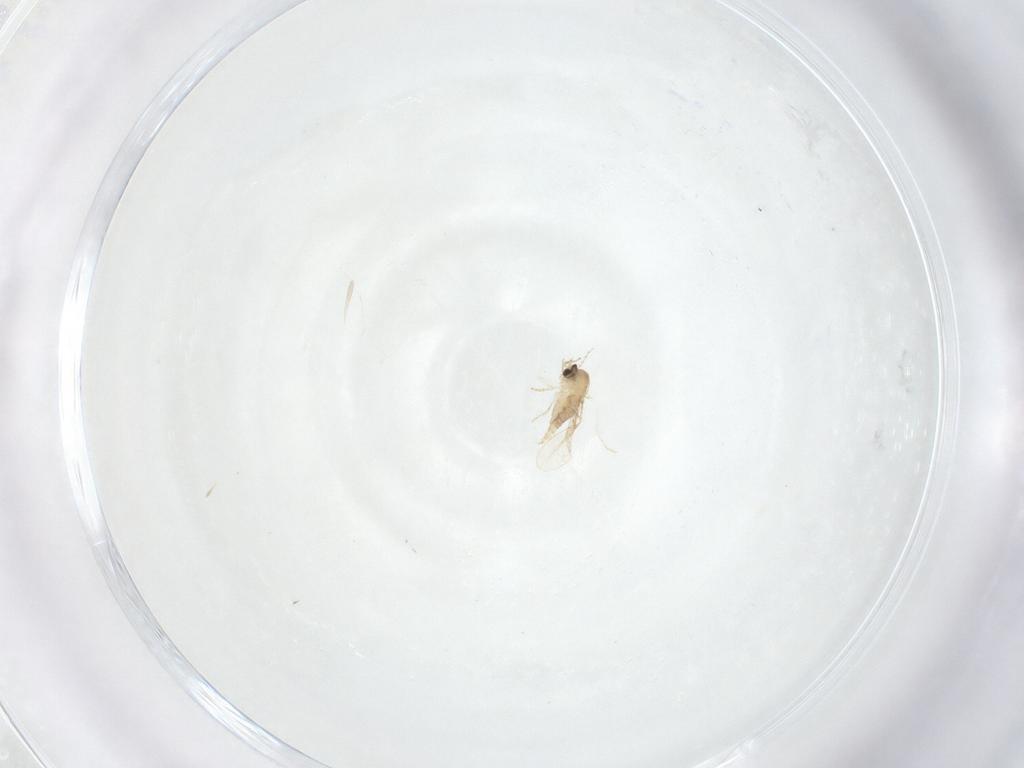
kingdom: Animalia
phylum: Arthropoda
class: Insecta
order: Diptera
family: Cecidomyiidae
